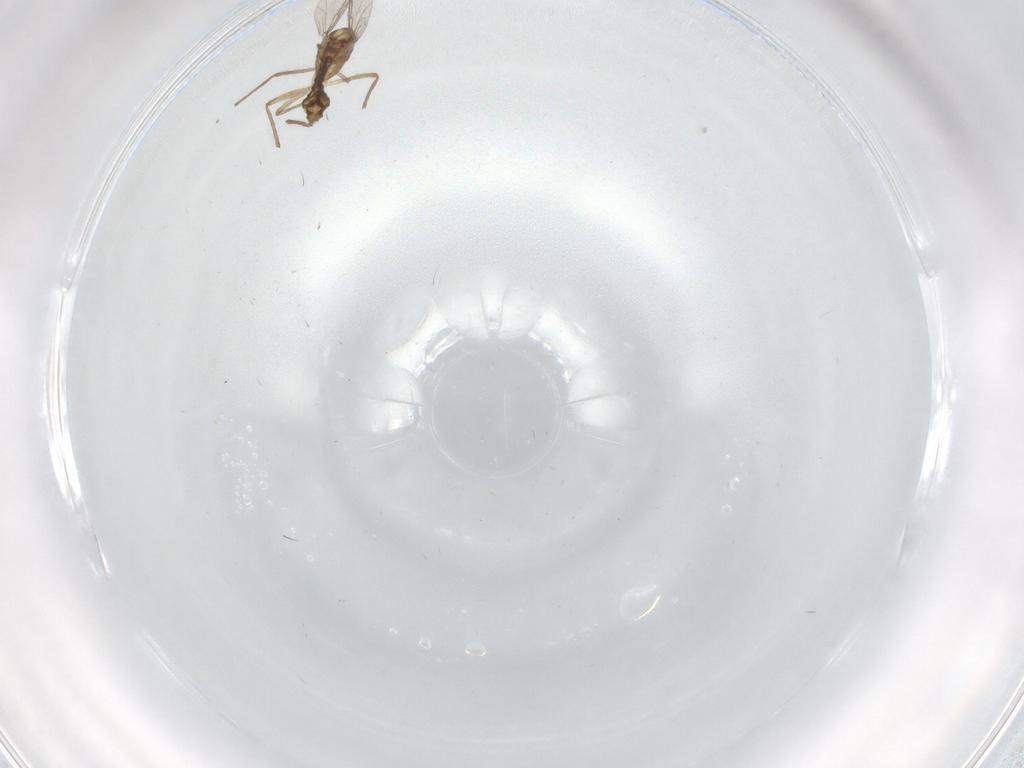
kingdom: Animalia
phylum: Arthropoda
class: Insecta
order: Diptera
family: Chironomidae
